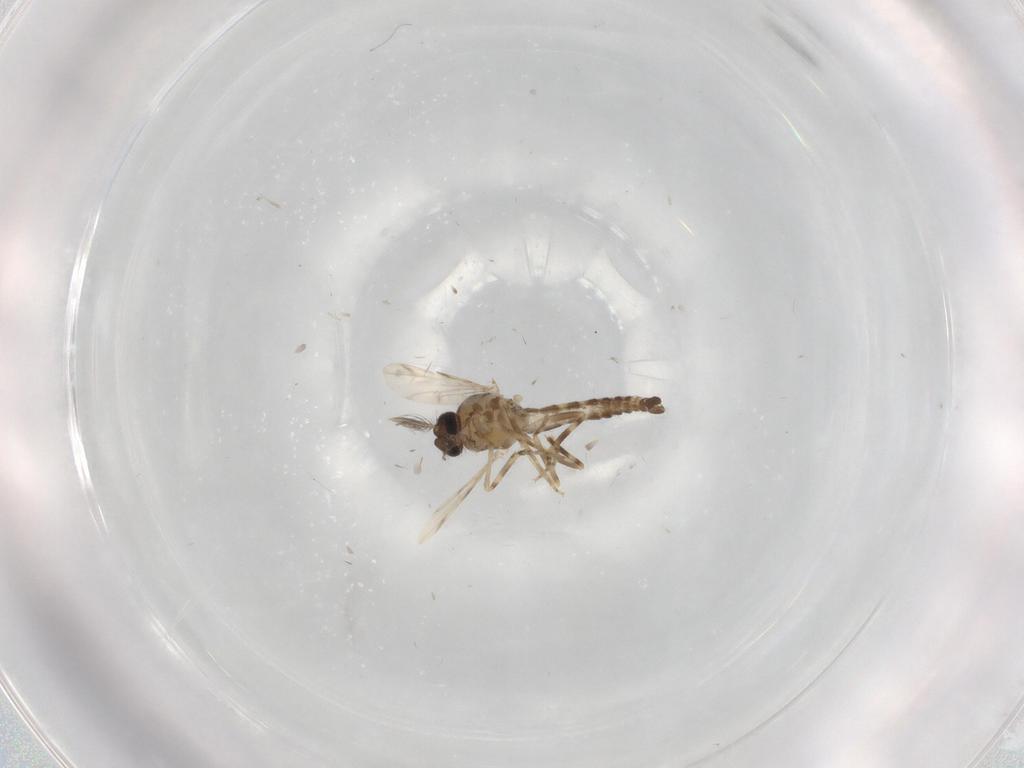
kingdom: Animalia
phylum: Arthropoda
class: Insecta
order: Diptera
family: Ceratopogonidae
